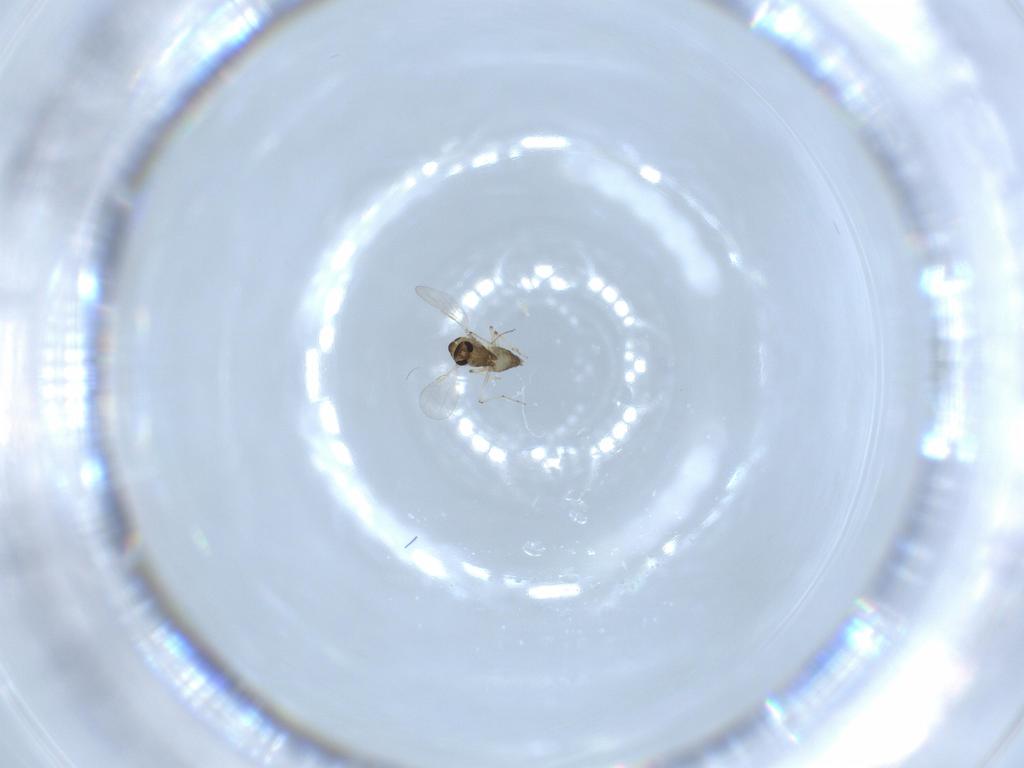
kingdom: Animalia
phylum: Arthropoda
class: Insecta
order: Diptera
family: Chironomidae
